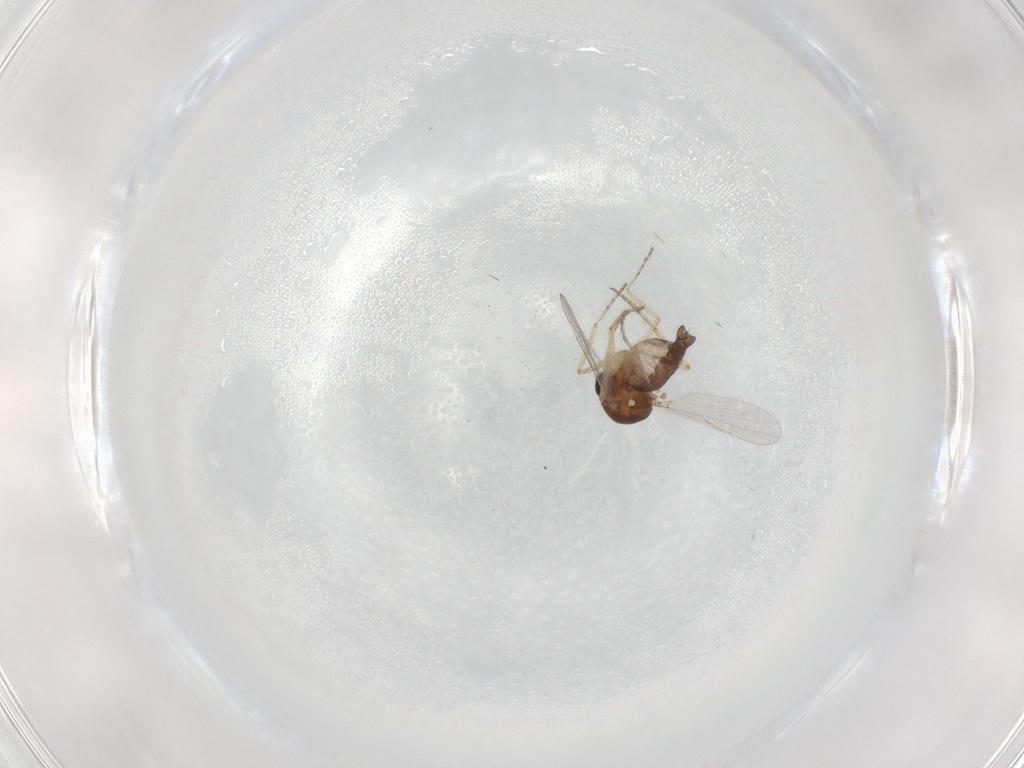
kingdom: Animalia
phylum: Arthropoda
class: Insecta
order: Diptera
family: Ceratopogonidae
